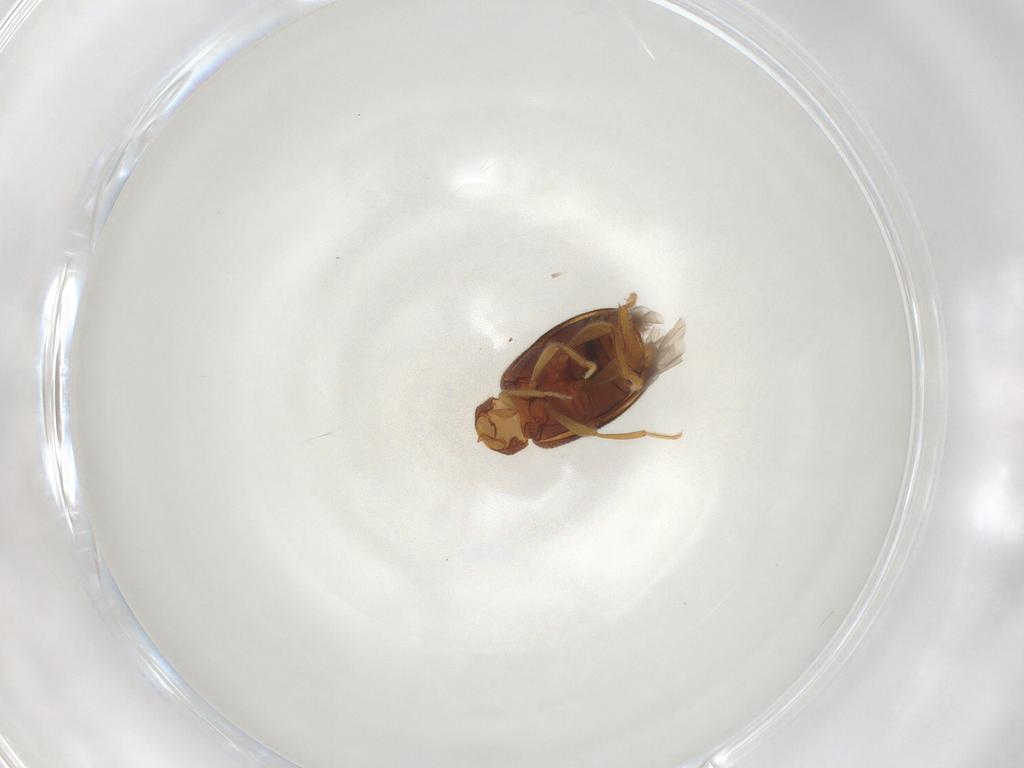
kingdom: Animalia
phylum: Arthropoda
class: Insecta
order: Coleoptera
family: Aderidae
